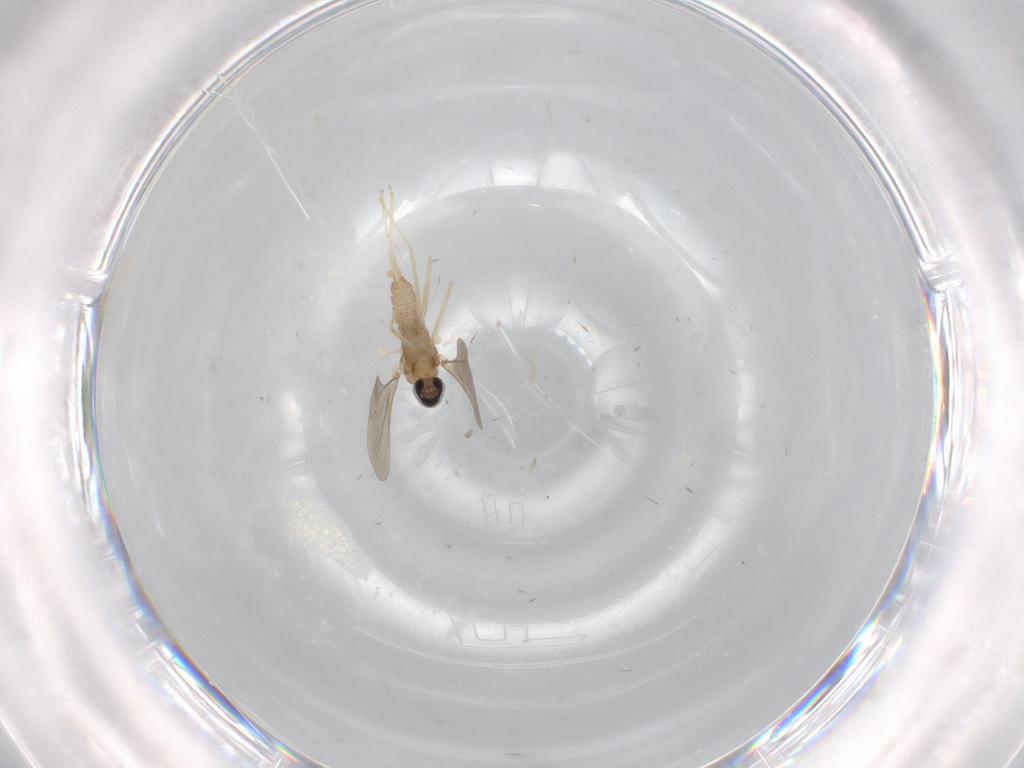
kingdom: Animalia
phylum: Arthropoda
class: Insecta
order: Diptera
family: Cecidomyiidae
